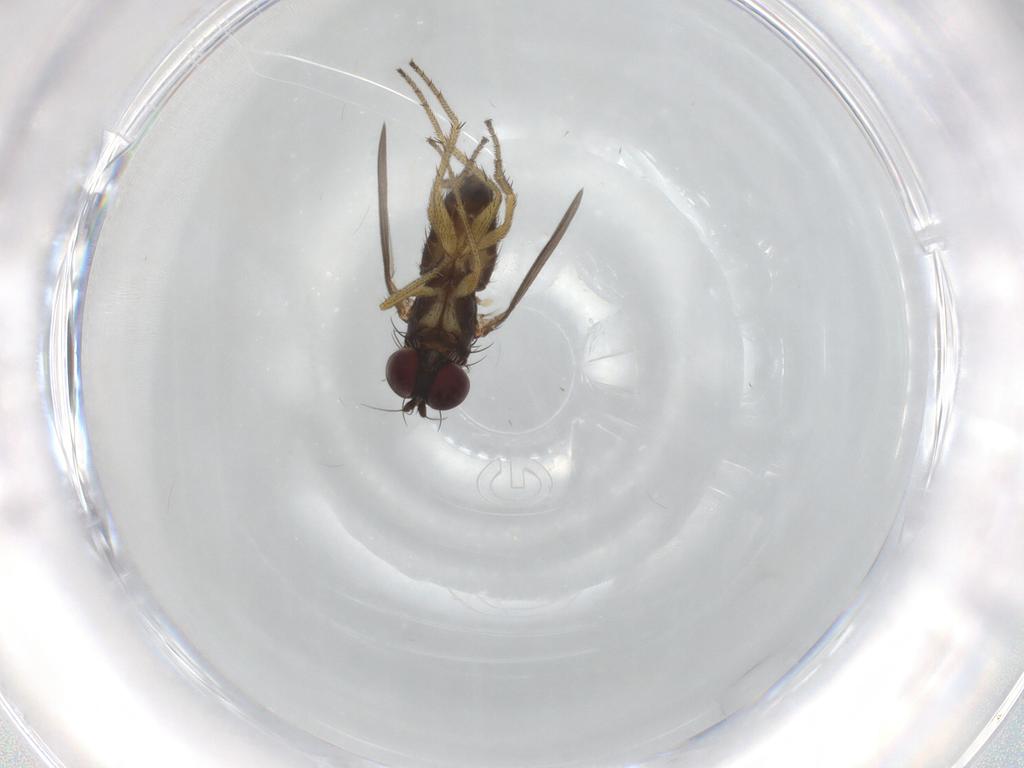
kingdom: Animalia
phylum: Arthropoda
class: Insecta
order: Diptera
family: Dolichopodidae
